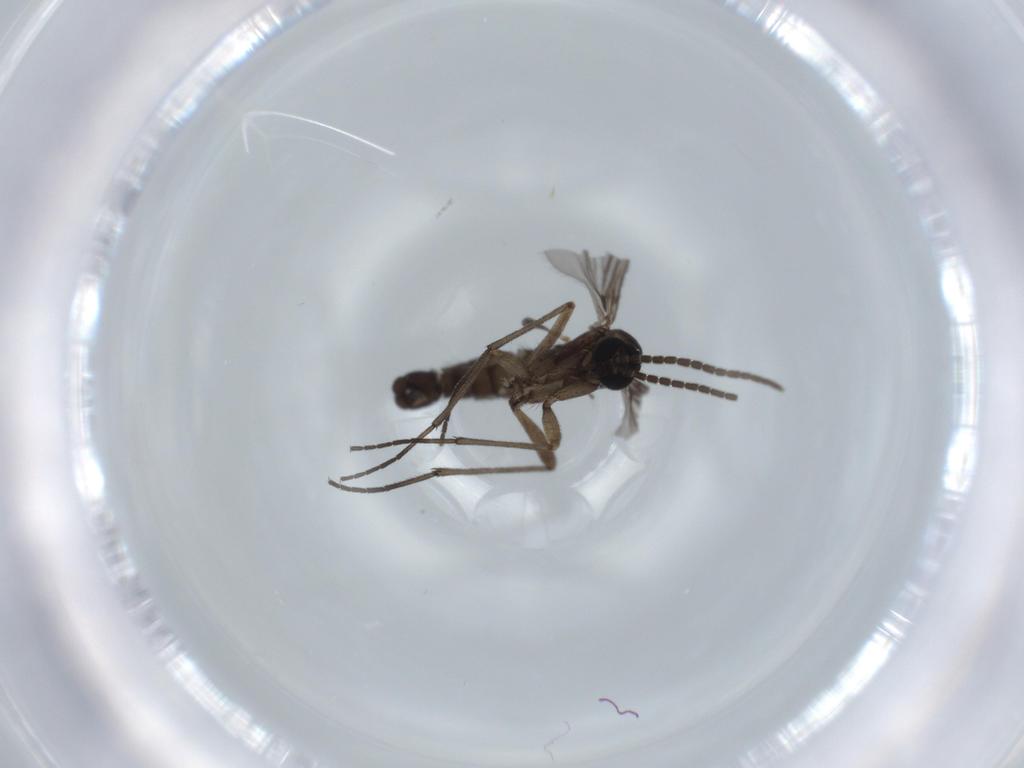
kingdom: Animalia
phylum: Arthropoda
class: Insecta
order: Diptera
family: Sciaridae
